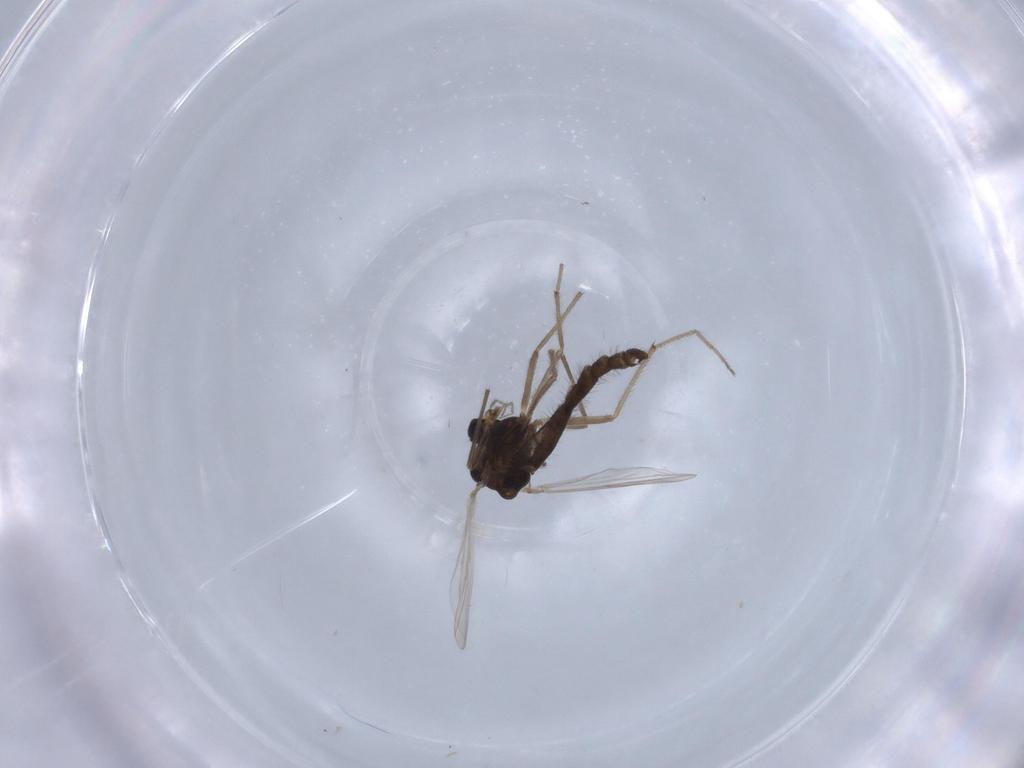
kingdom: Animalia
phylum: Arthropoda
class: Insecta
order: Diptera
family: Chironomidae
